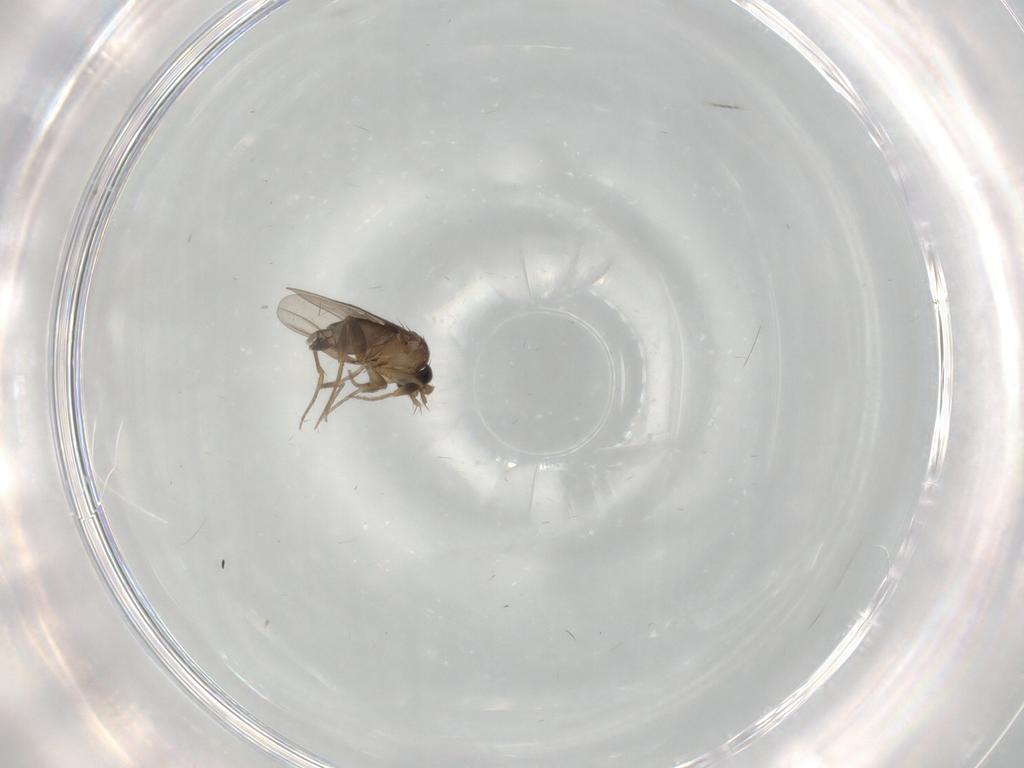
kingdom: Animalia
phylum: Arthropoda
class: Insecta
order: Diptera
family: Phoridae
